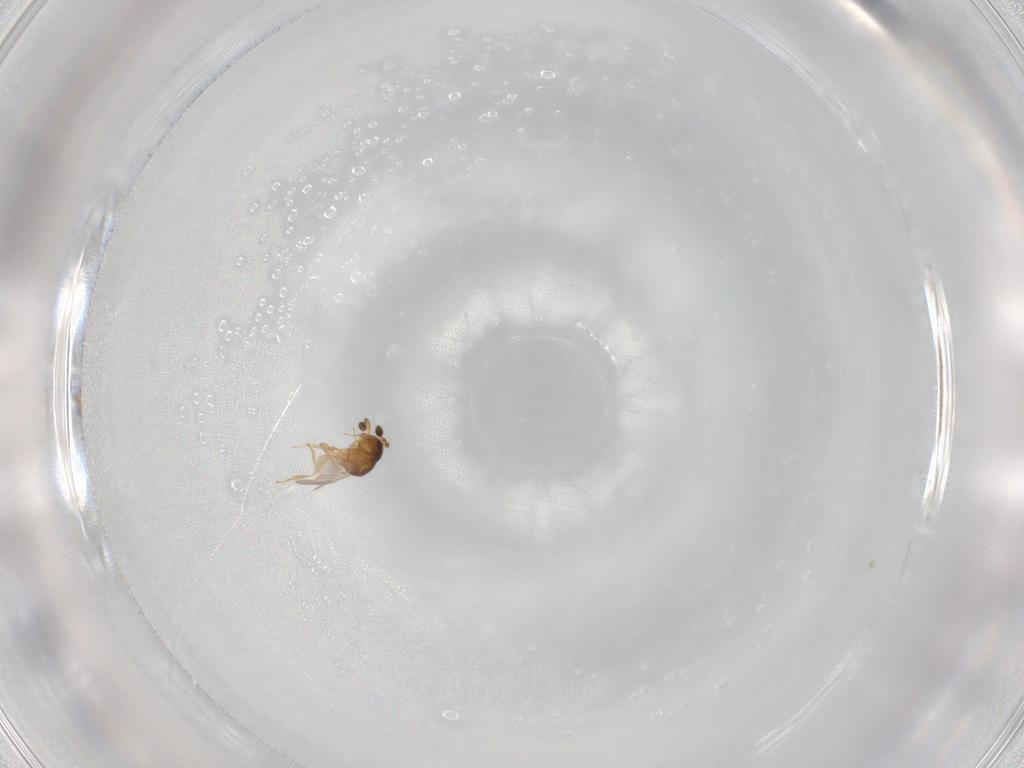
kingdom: Animalia
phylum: Arthropoda
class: Insecta
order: Hymenoptera
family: Scelionidae
